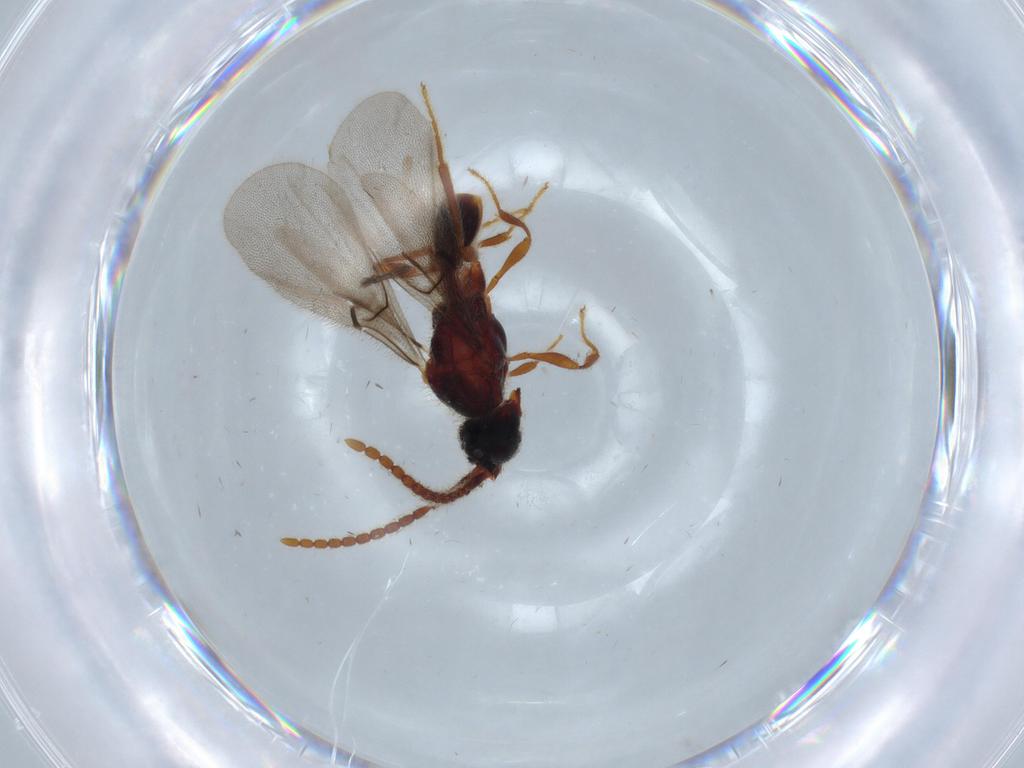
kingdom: Animalia
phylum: Arthropoda
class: Insecta
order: Hymenoptera
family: Diapriidae
